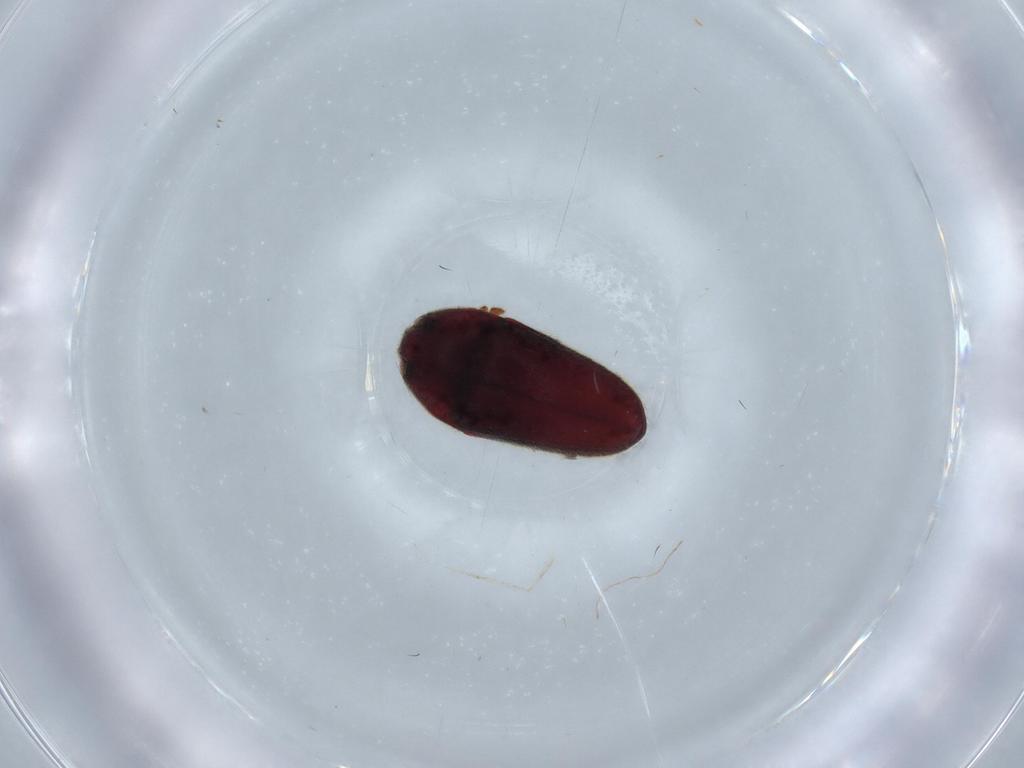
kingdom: Animalia
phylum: Arthropoda
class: Insecta
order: Coleoptera
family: Throscidae
